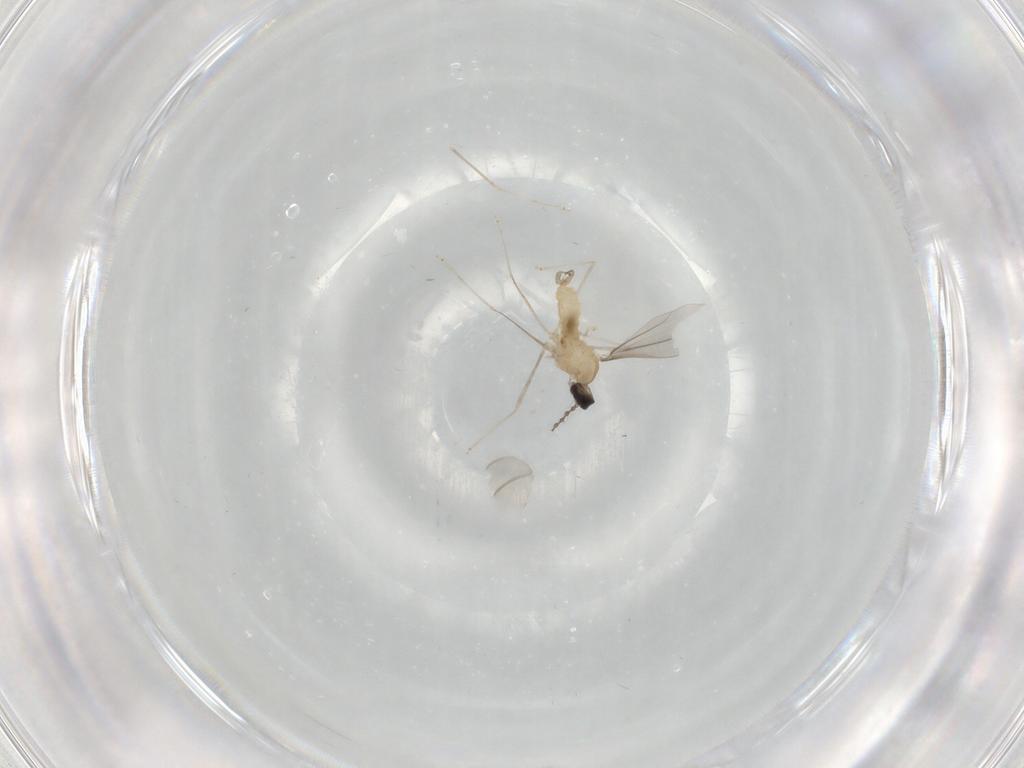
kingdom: Animalia
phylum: Arthropoda
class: Insecta
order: Diptera
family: Cecidomyiidae
